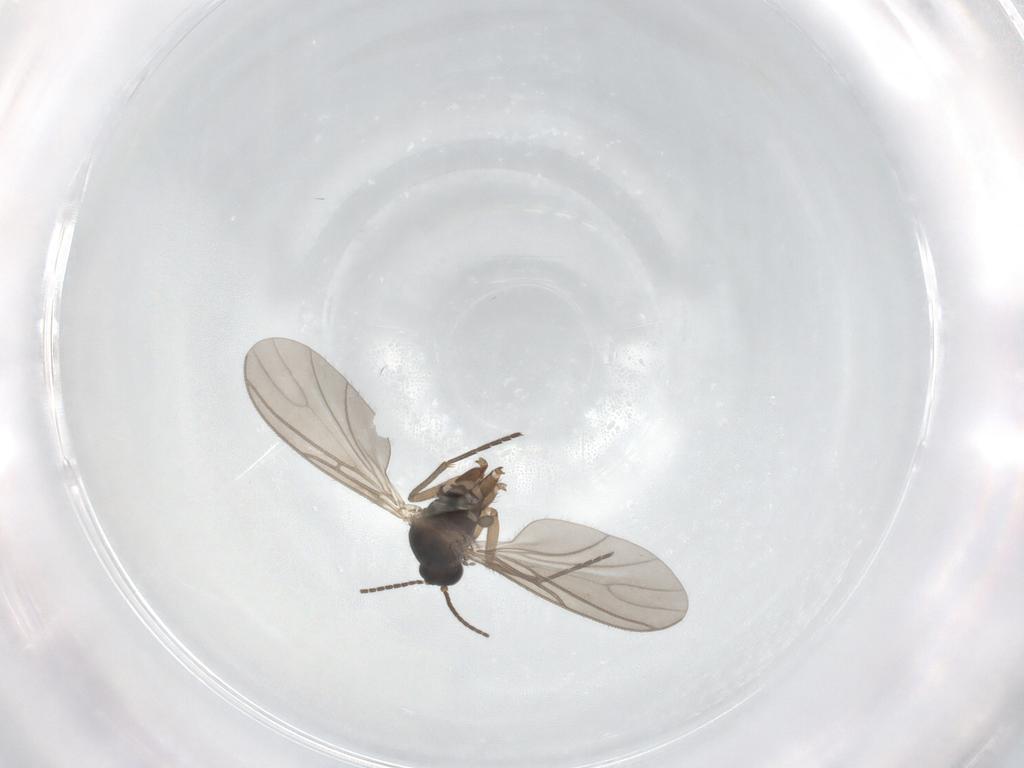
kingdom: Animalia
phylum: Arthropoda
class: Insecta
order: Diptera
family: Sciaridae
